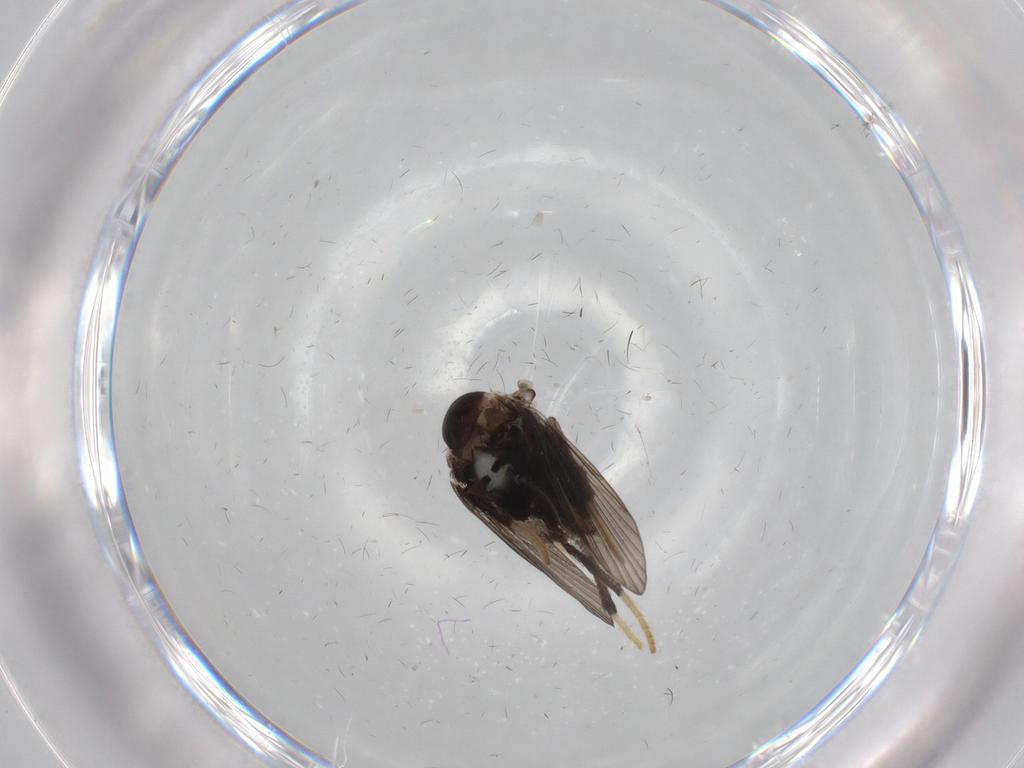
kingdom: Animalia
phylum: Arthropoda
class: Insecta
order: Diptera
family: Psychodidae
